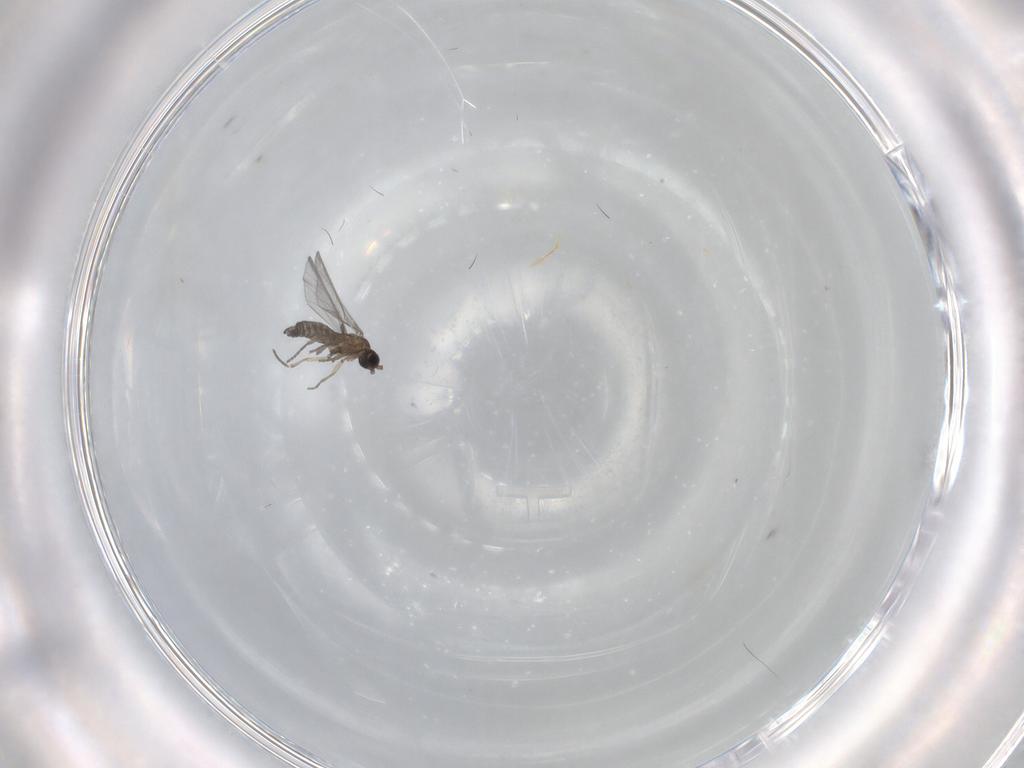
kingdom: Animalia
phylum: Arthropoda
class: Insecta
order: Diptera
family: Sciaridae
